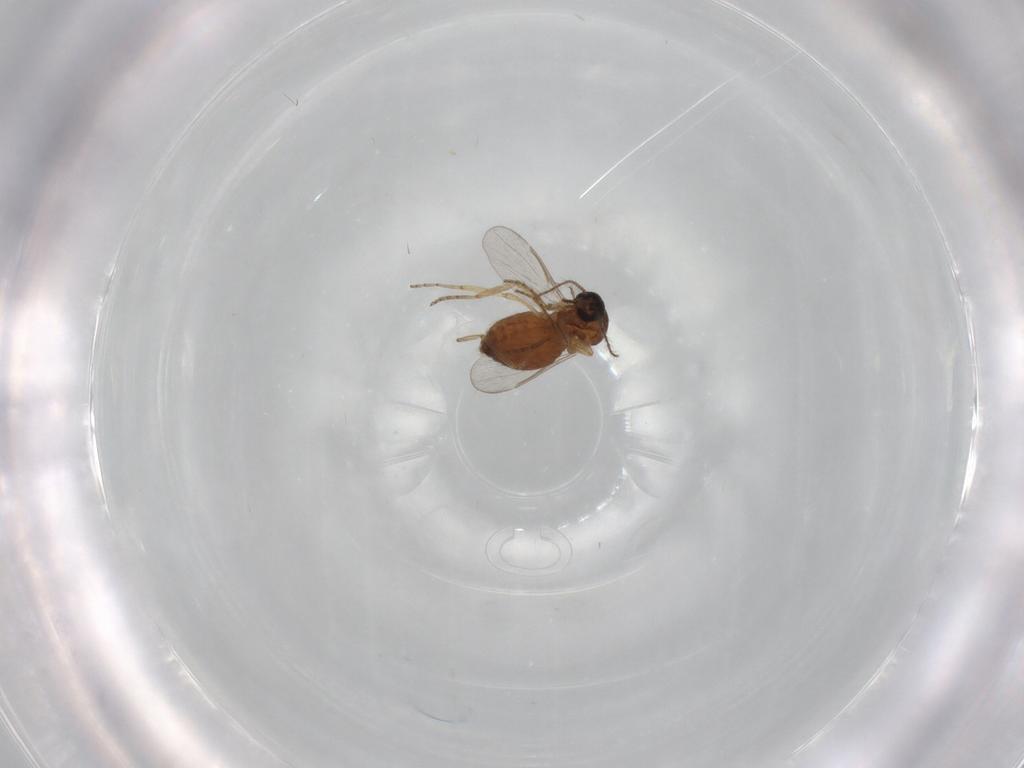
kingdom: Animalia
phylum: Arthropoda
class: Insecta
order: Diptera
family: Ceratopogonidae
